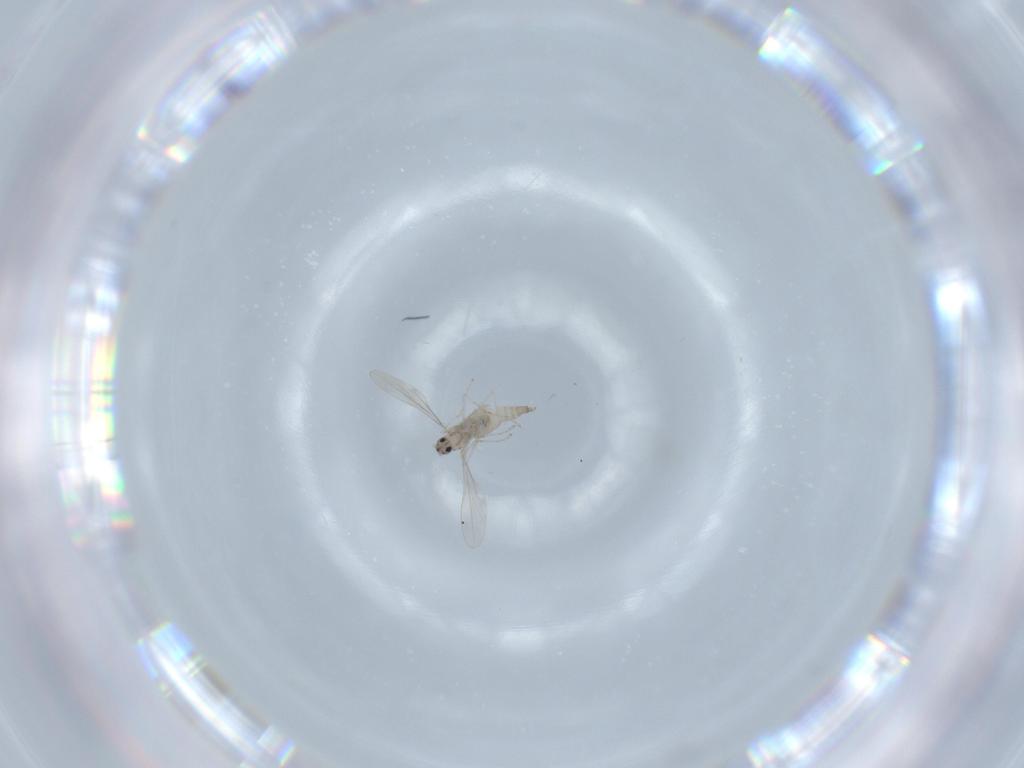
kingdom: Animalia
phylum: Arthropoda
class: Insecta
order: Diptera
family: Cecidomyiidae
